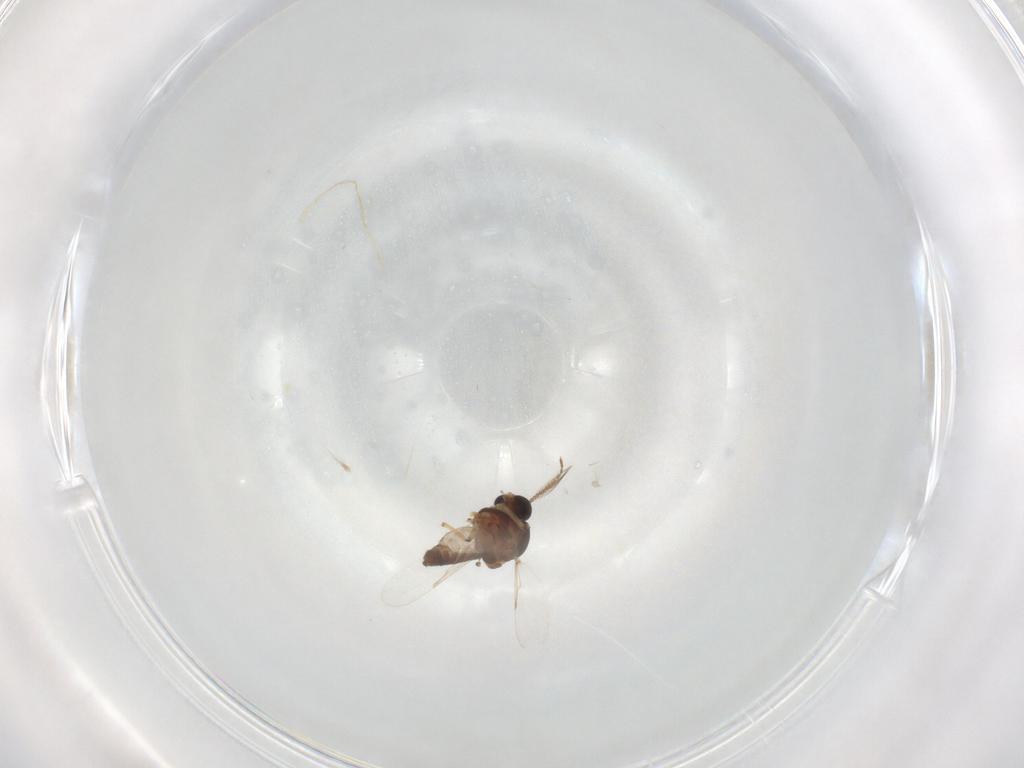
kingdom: Animalia
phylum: Arthropoda
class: Insecta
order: Diptera
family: Ceratopogonidae
